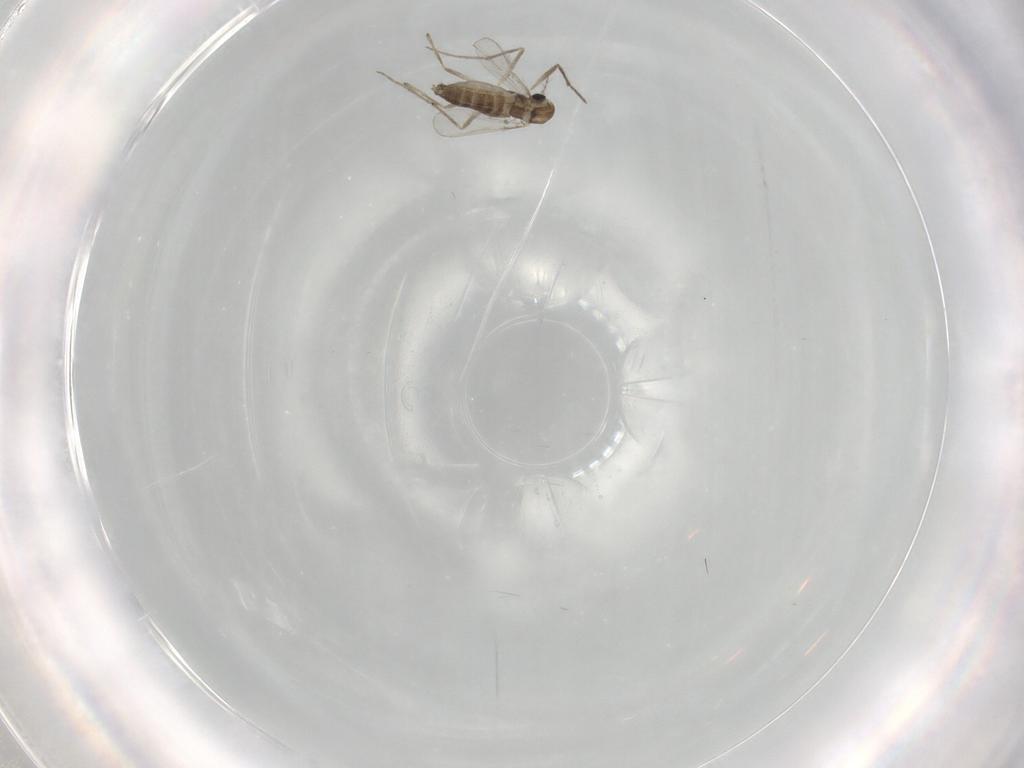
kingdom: Animalia
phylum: Arthropoda
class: Insecta
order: Diptera
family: Chironomidae
